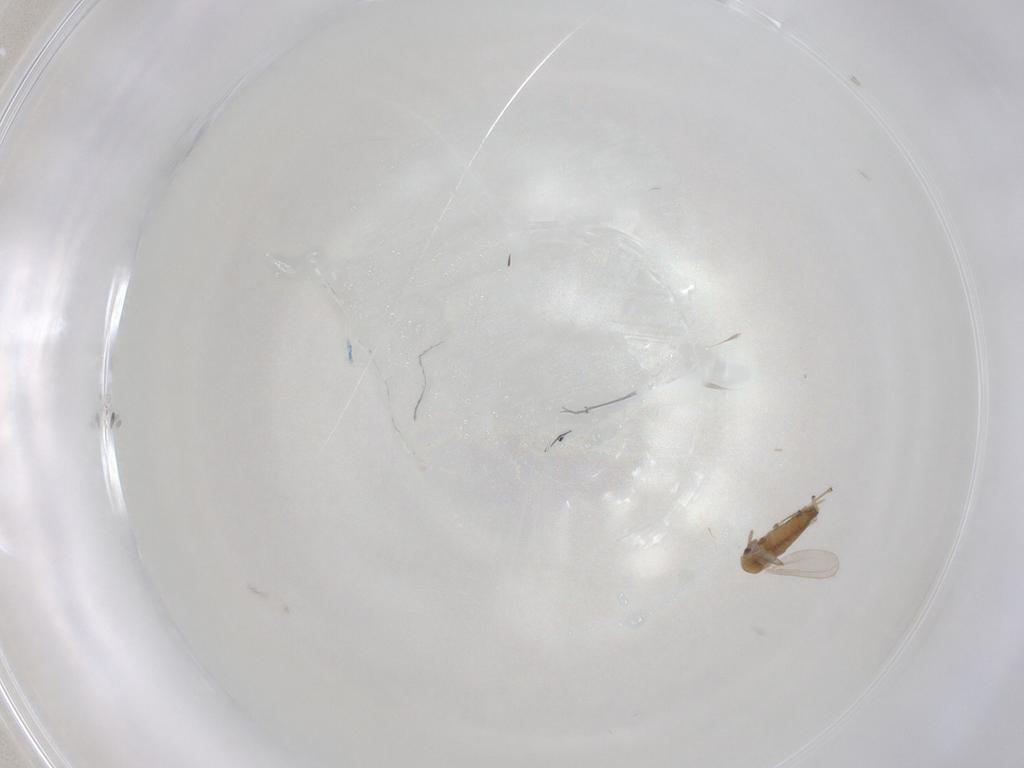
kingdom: Animalia
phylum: Arthropoda
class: Insecta
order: Diptera
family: Chironomidae
